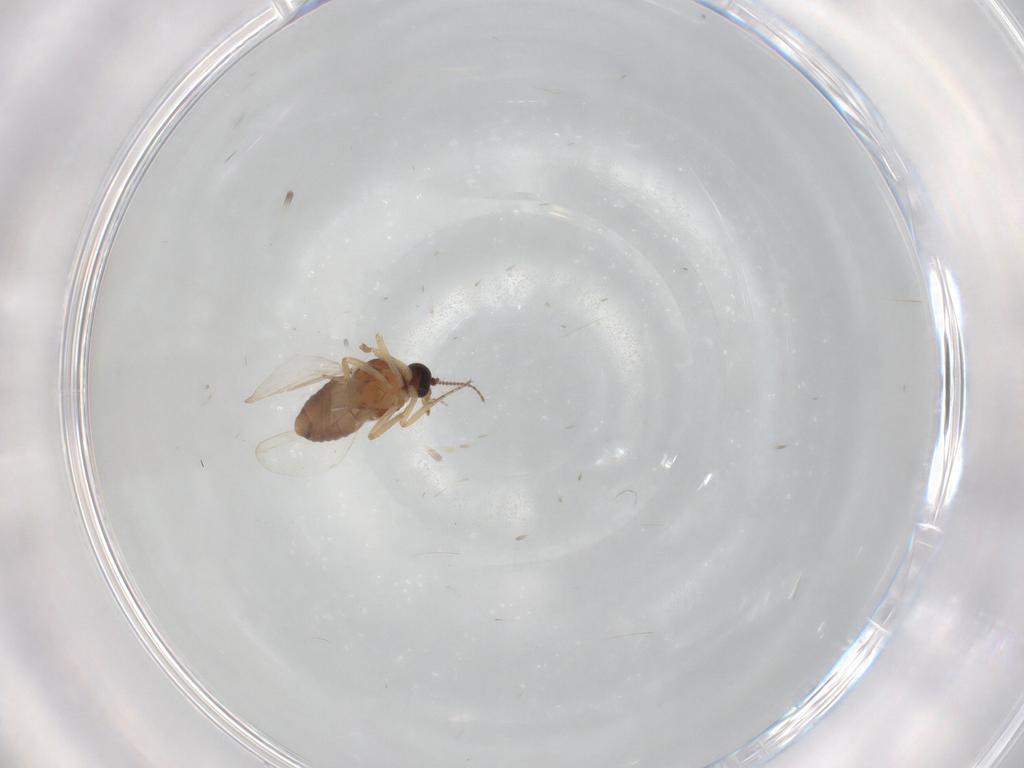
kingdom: Animalia
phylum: Arthropoda
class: Insecta
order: Diptera
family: Ceratopogonidae
